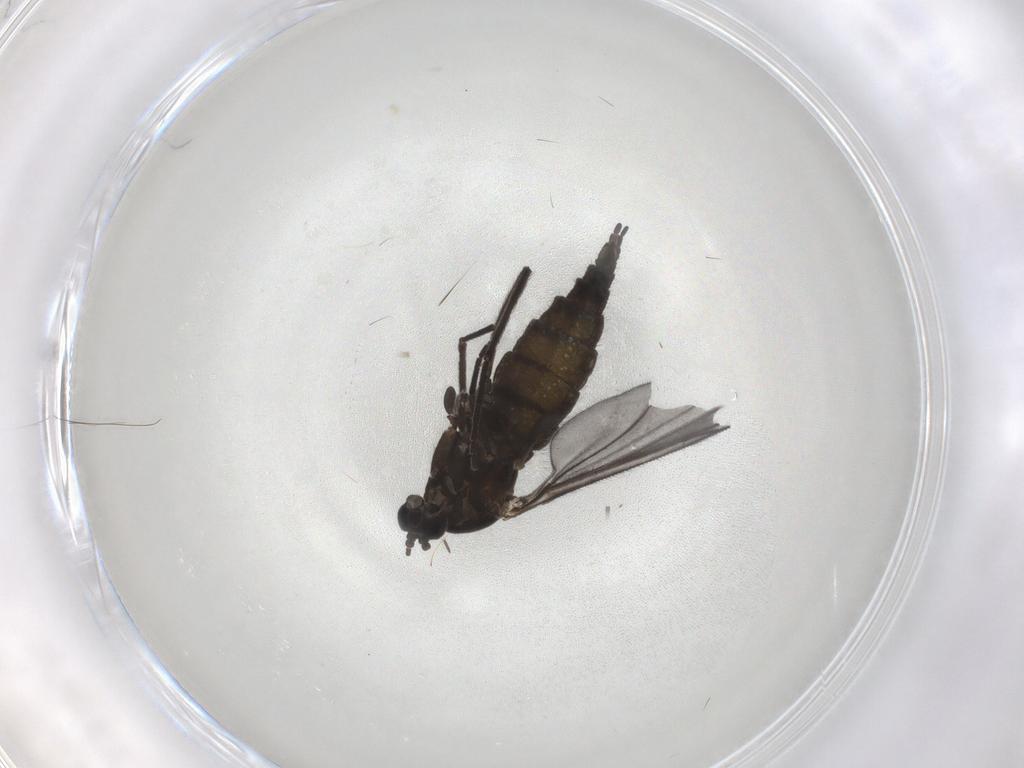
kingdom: Animalia
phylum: Arthropoda
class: Insecta
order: Diptera
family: Sciaridae
